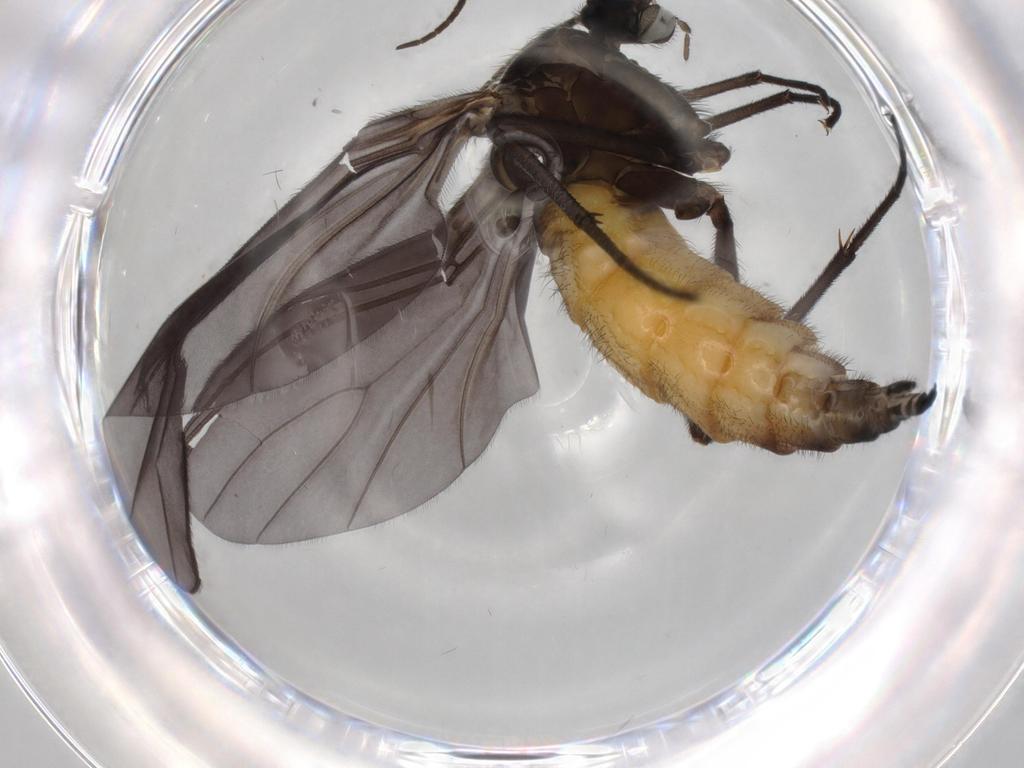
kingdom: Animalia
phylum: Arthropoda
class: Insecta
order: Diptera
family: Cecidomyiidae
